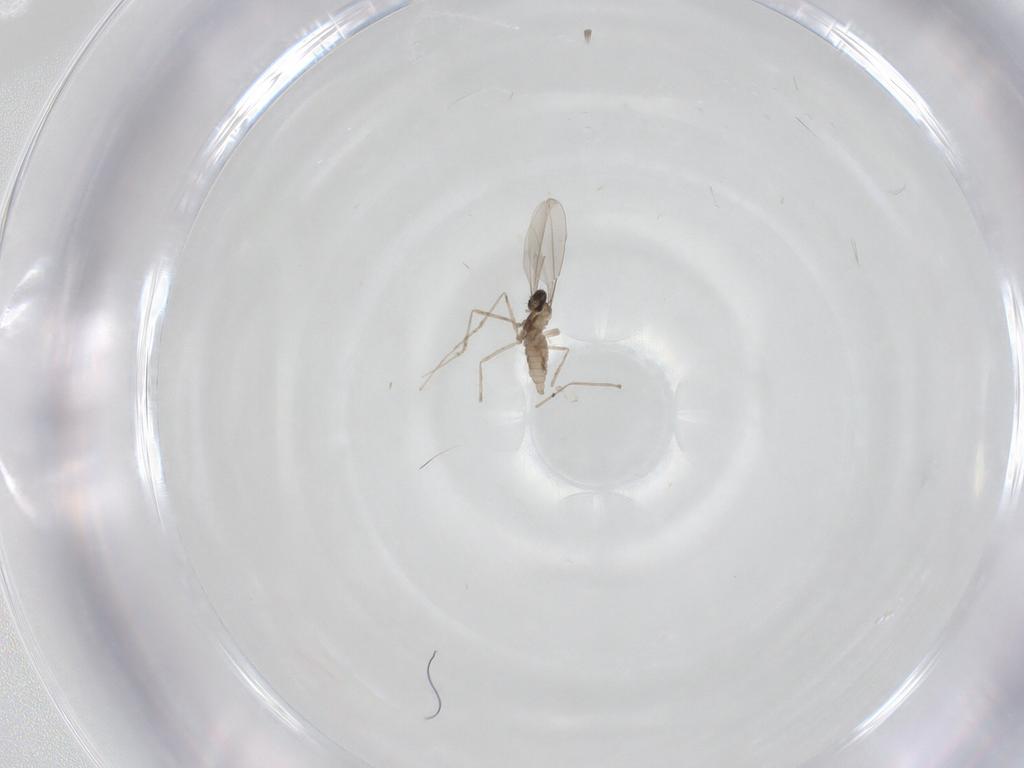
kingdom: Animalia
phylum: Arthropoda
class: Insecta
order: Diptera
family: Cecidomyiidae
